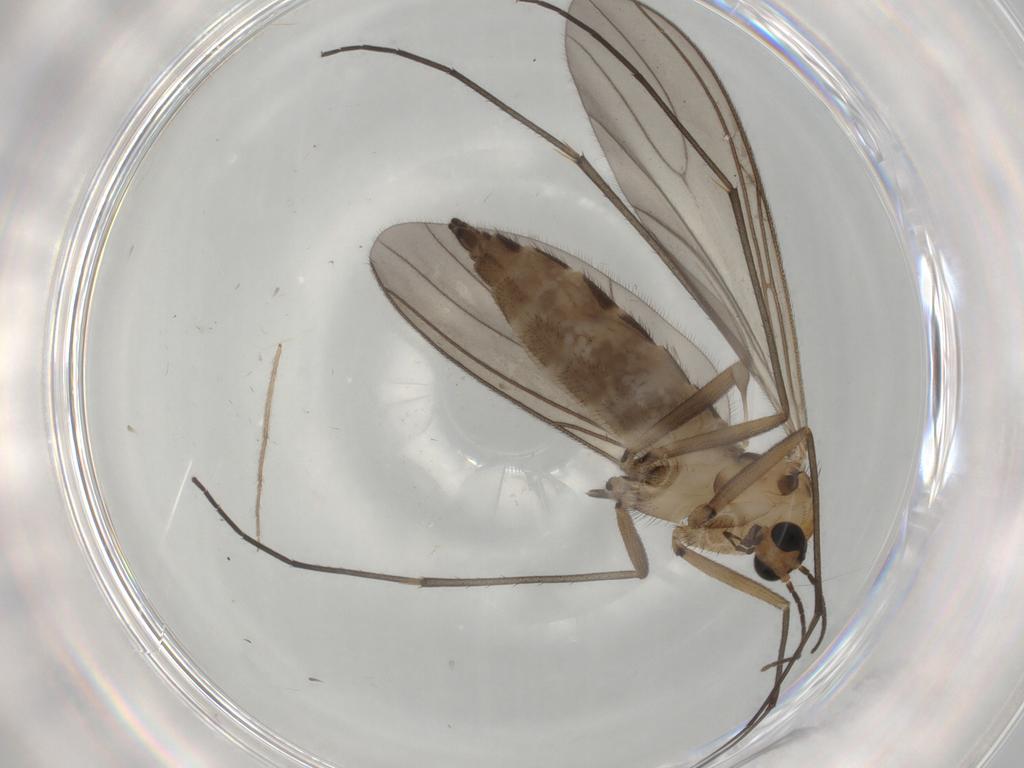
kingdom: Animalia
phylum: Arthropoda
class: Insecta
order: Diptera
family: Sciaridae
